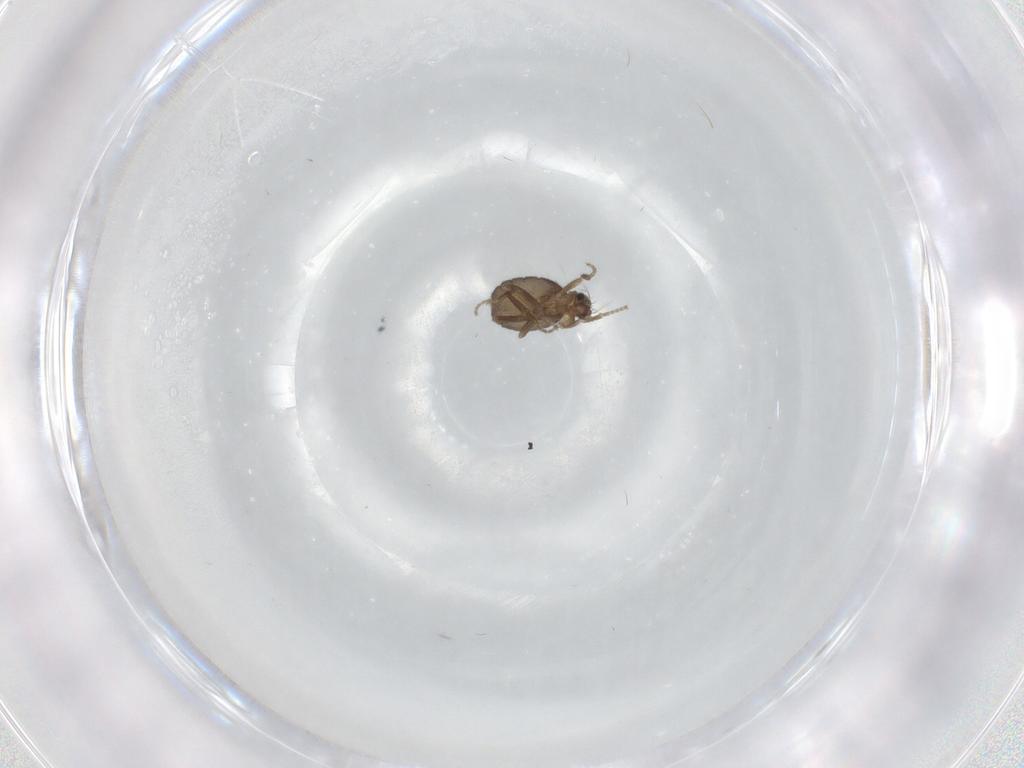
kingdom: Animalia
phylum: Arthropoda
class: Insecta
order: Diptera
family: Phoridae
